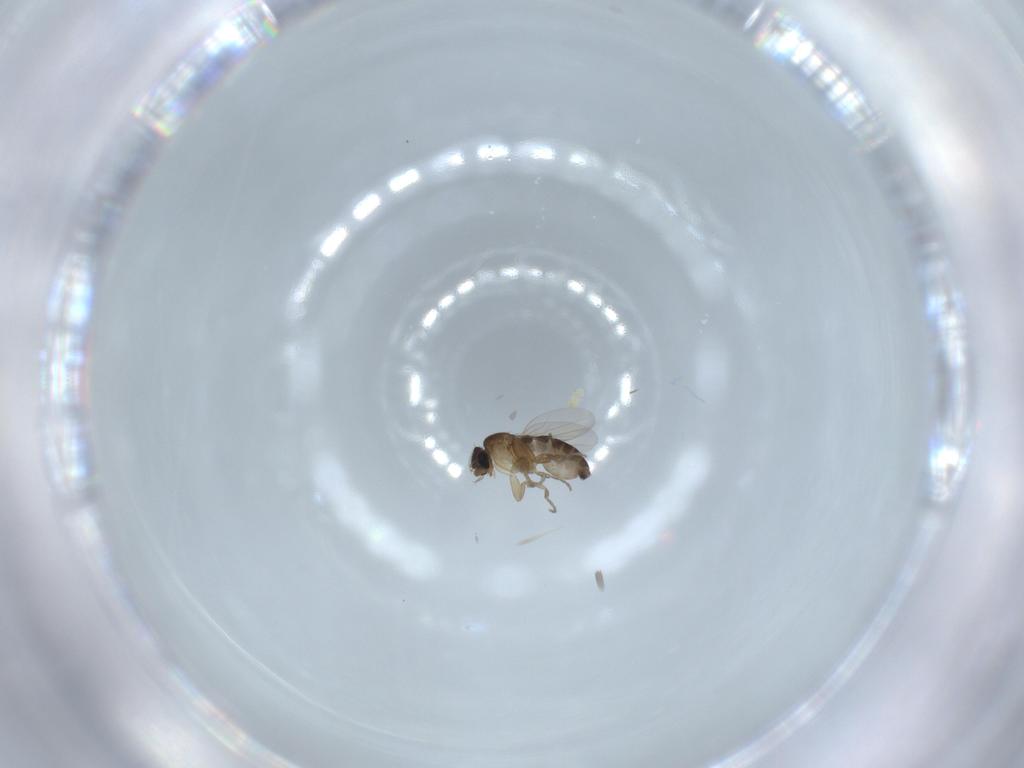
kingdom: Animalia
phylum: Arthropoda
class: Insecta
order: Diptera
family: Phoridae
